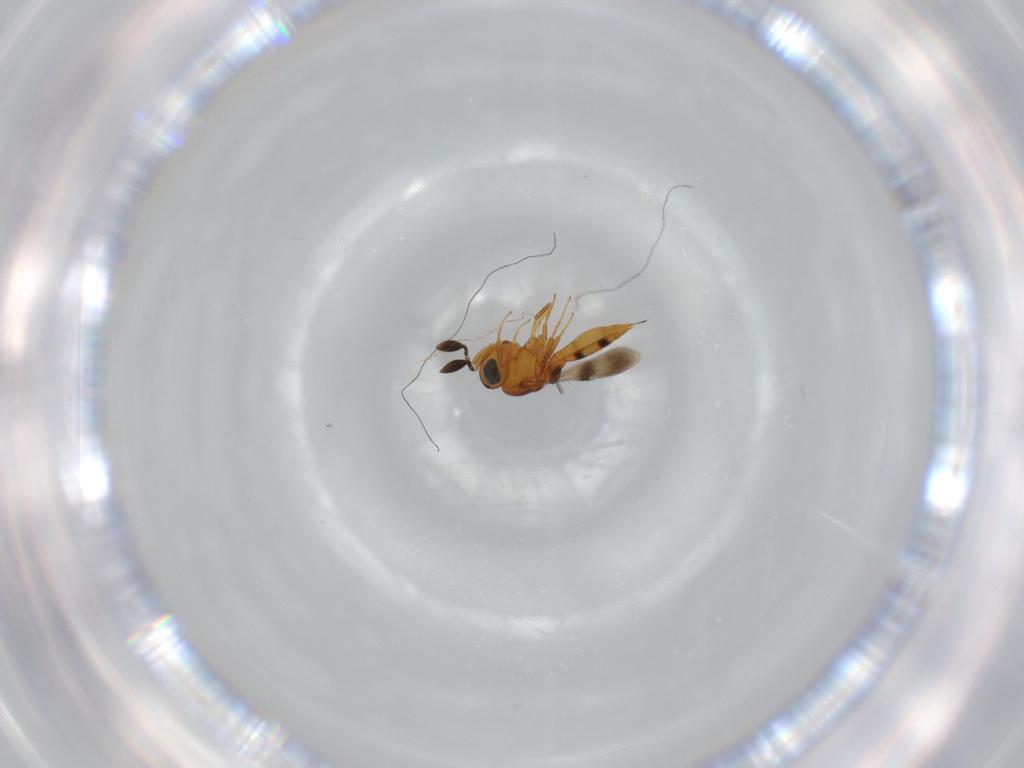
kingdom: Animalia
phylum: Arthropoda
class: Insecta
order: Hymenoptera
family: Scelionidae
